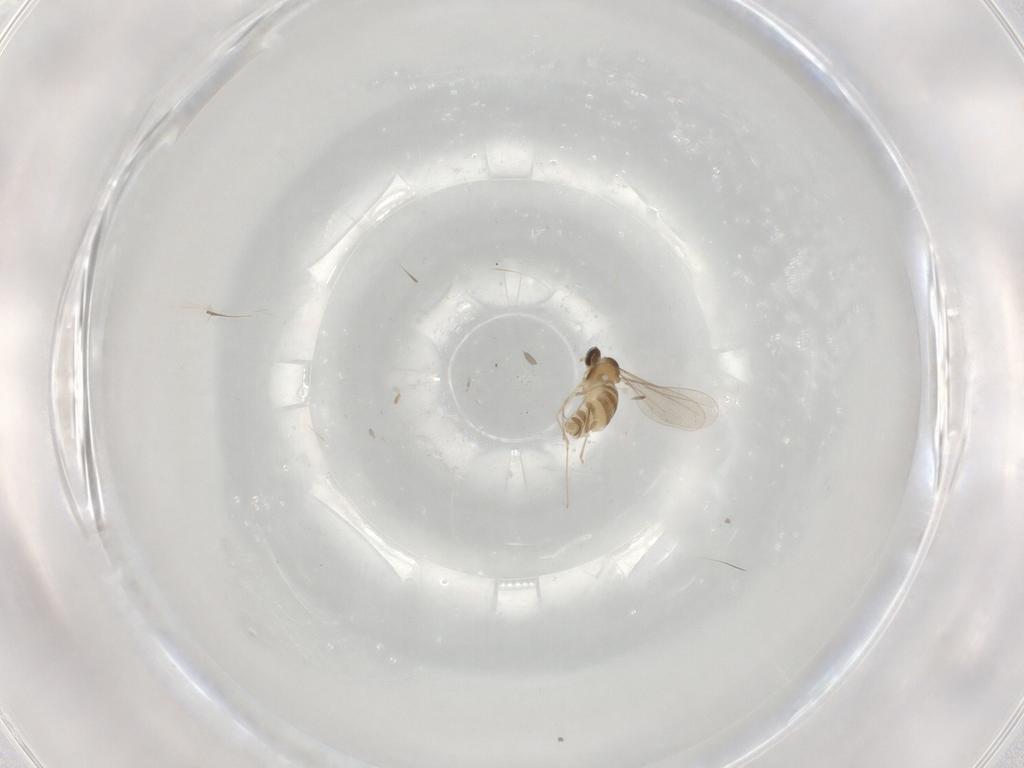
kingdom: Animalia
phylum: Arthropoda
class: Insecta
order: Diptera
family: Cecidomyiidae
